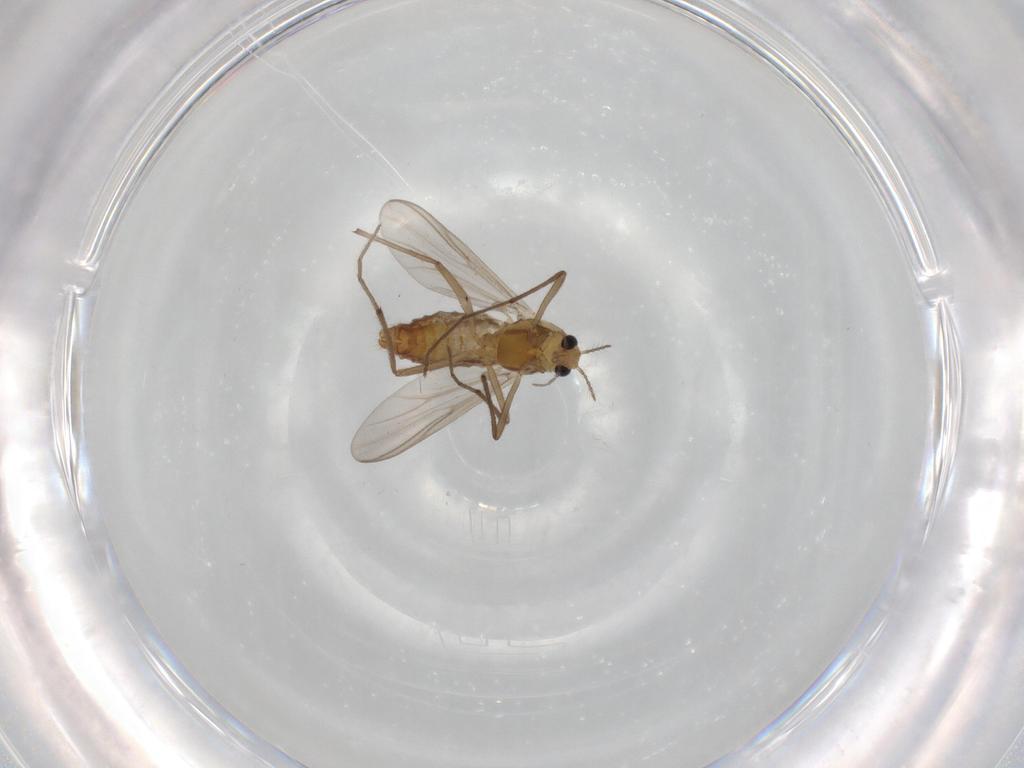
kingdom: Animalia
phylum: Arthropoda
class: Insecta
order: Diptera
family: Chironomidae
